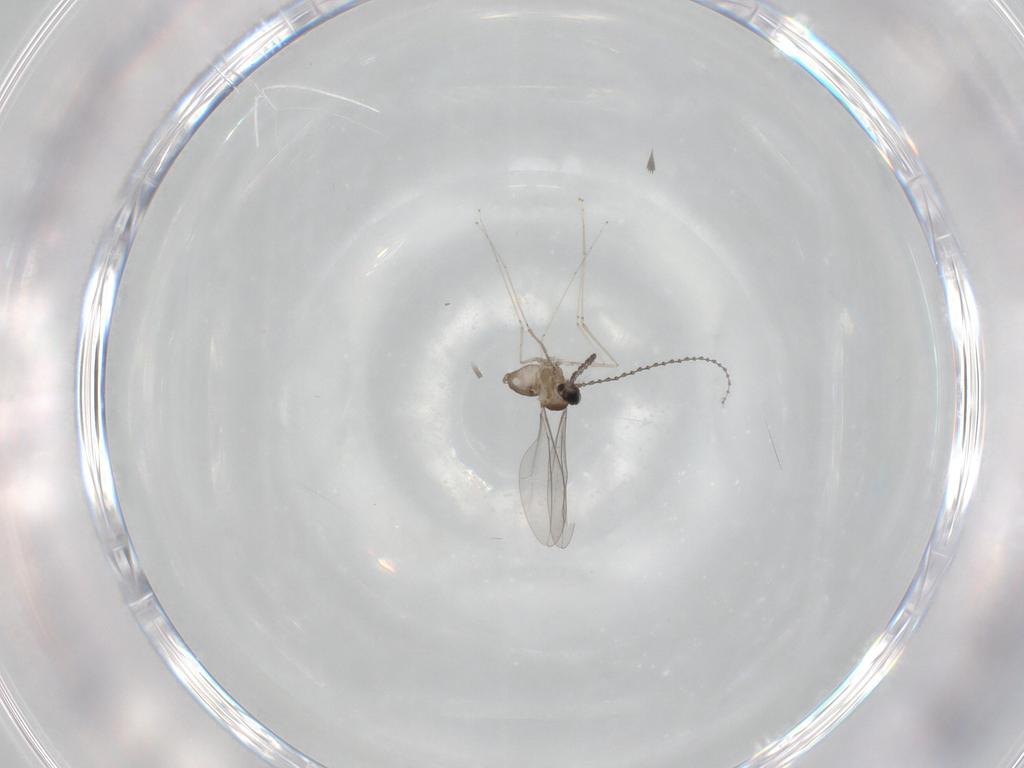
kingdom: Animalia
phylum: Arthropoda
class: Insecta
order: Diptera
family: Cecidomyiidae
